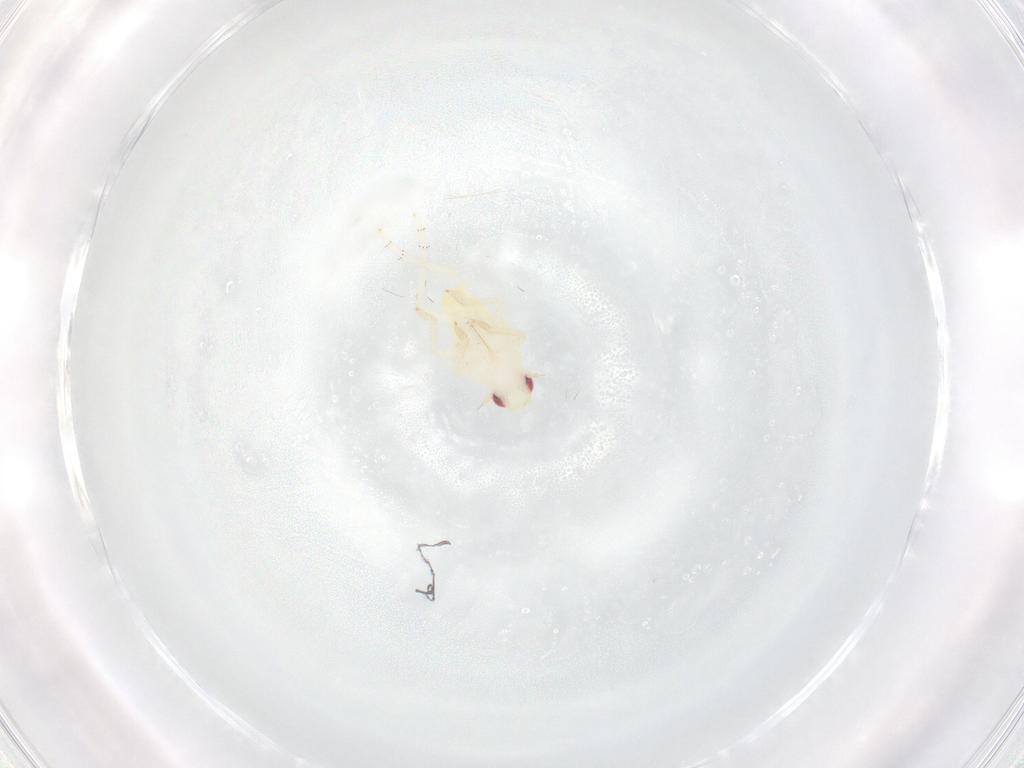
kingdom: Animalia
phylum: Arthropoda
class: Insecta
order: Hemiptera
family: Tropiduchidae
